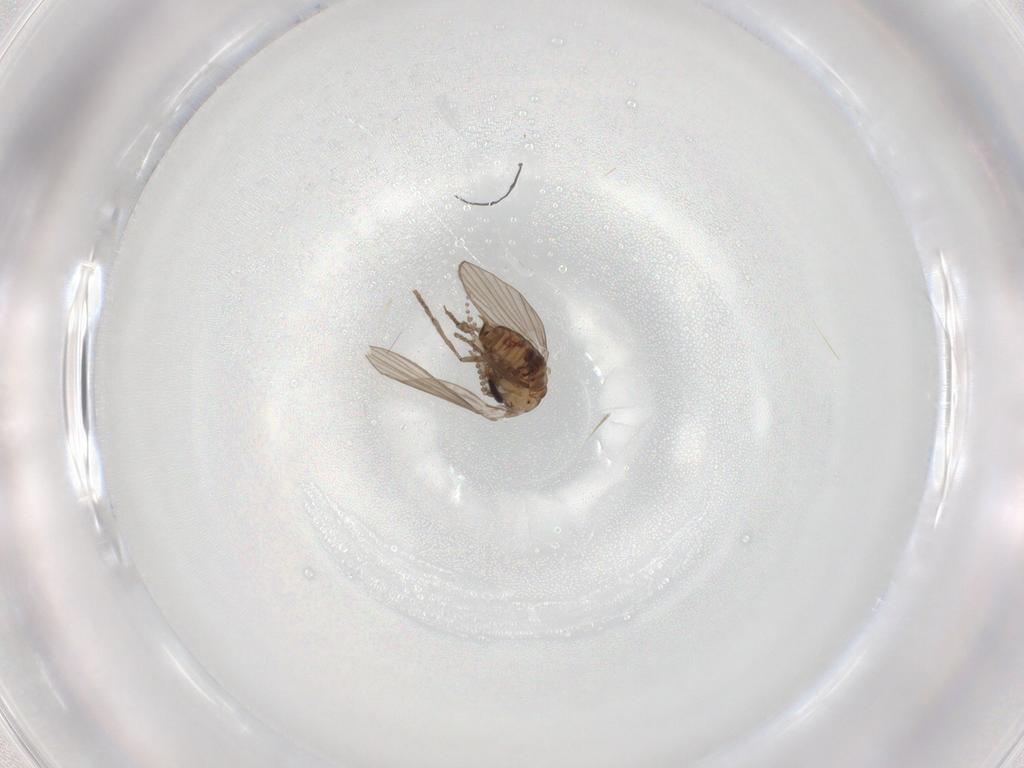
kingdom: Animalia
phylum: Arthropoda
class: Insecta
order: Diptera
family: Psychodidae
